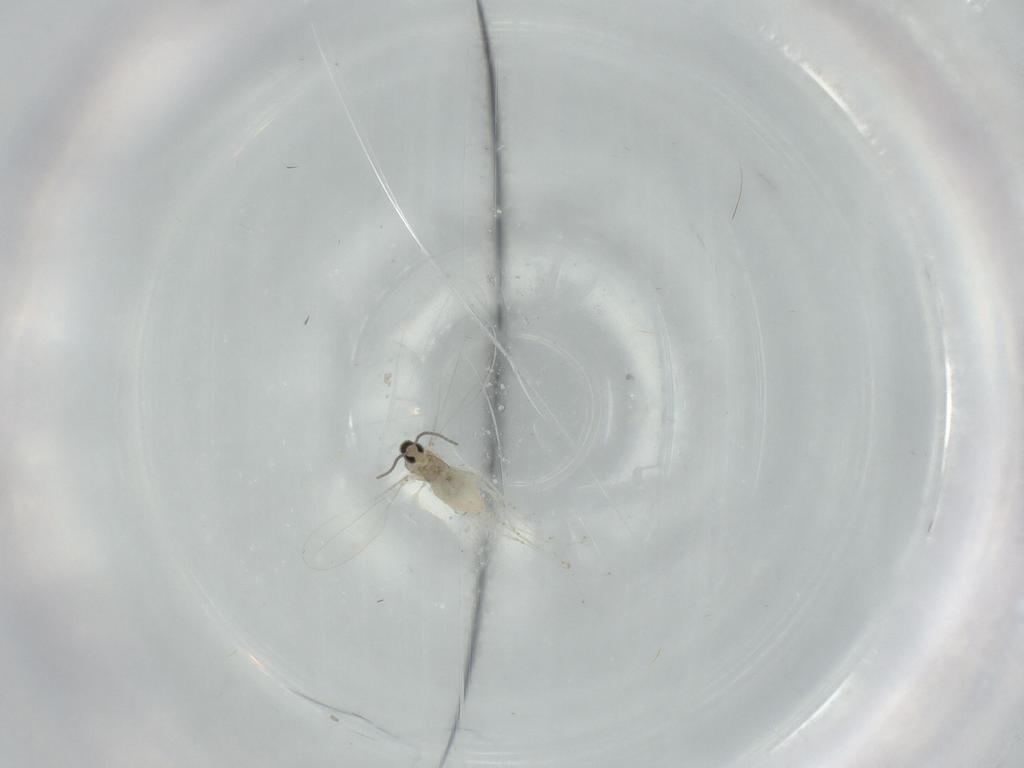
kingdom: Animalia
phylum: Arthropoda
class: Insecta
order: Diptera
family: Cecidomyiidae
